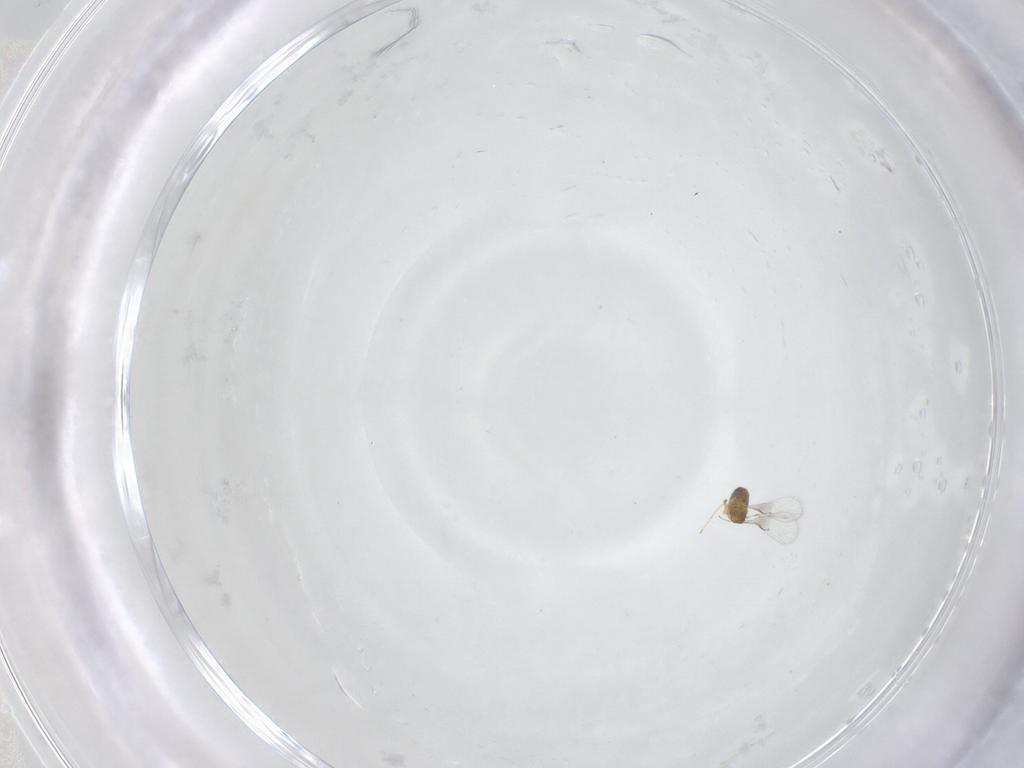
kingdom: Animalia
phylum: Arthropoda
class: Insecta
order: Hymenoptera
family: Trichogrammatidae
